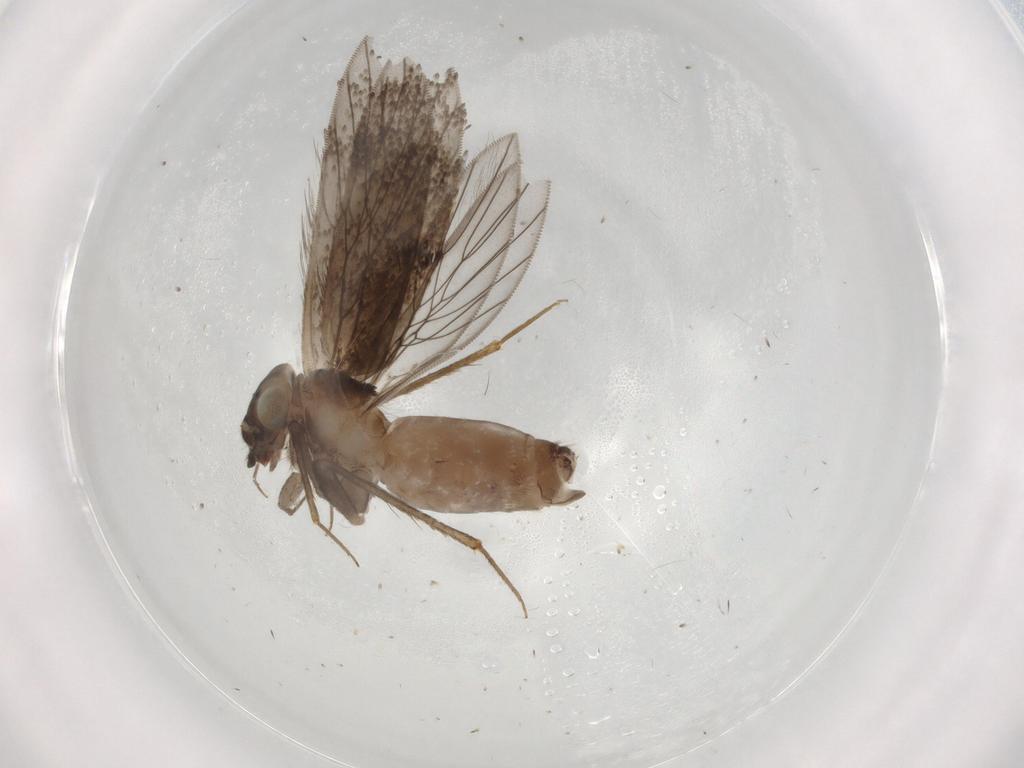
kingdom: Animalia
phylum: Arthropoda
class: Insecta
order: Psocodea
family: Lepidopsocidae
